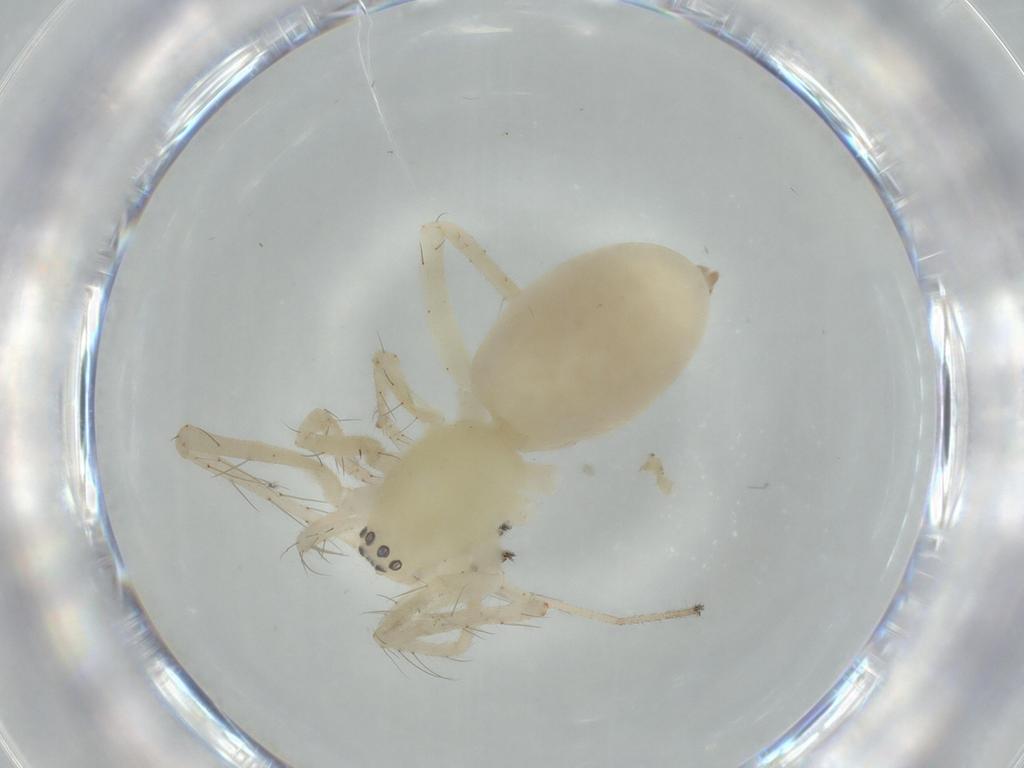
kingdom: Animalia
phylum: Arthropoda
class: Arachnida
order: Araneae
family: Anyphaenidae
